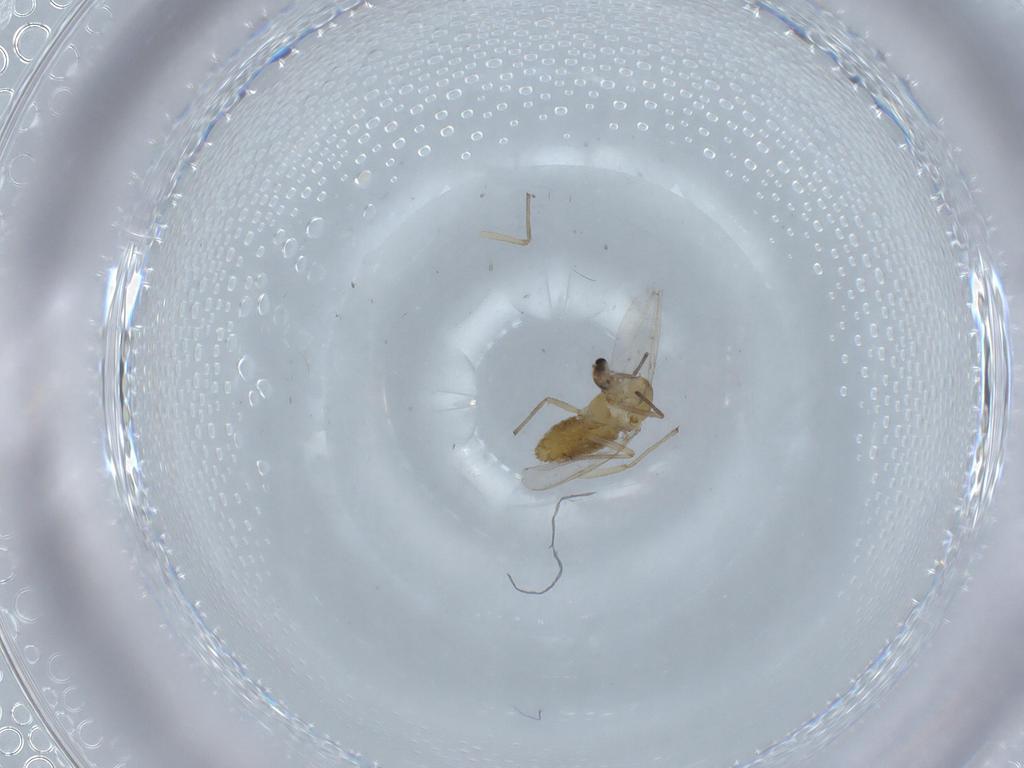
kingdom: Animalia
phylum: Arthropoda
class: Insecta
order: Diptera
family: Chironomidae
